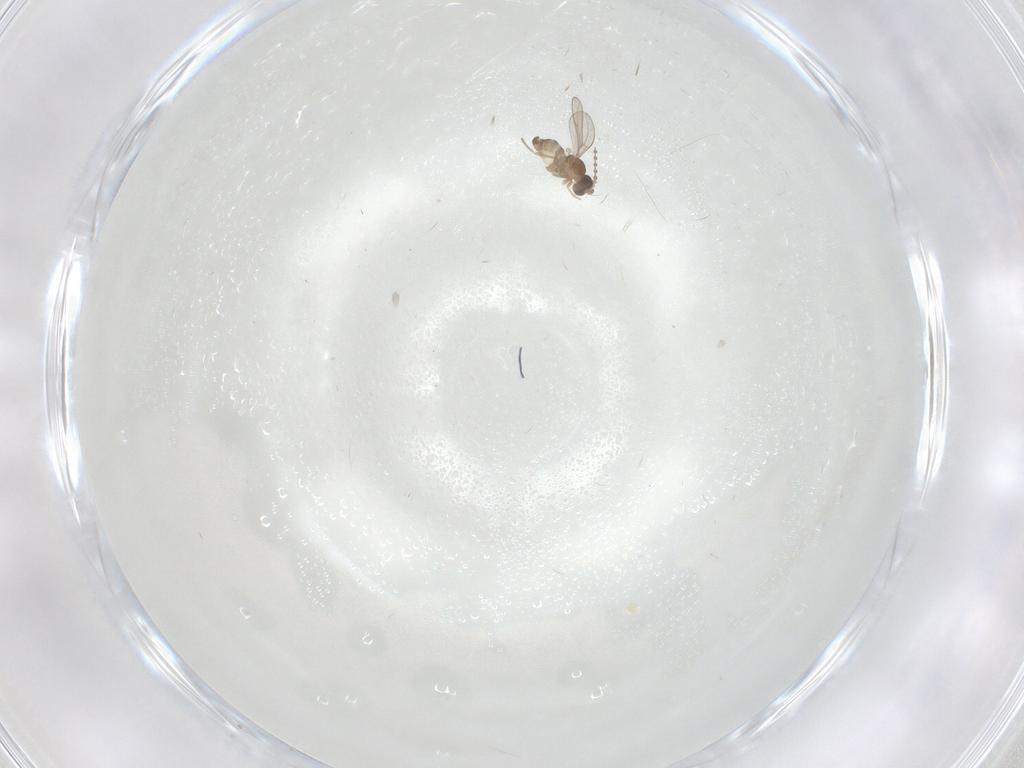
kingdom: Animalia
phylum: Arthropoda
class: Insecta
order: Diptera
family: Cecidomyiidae
